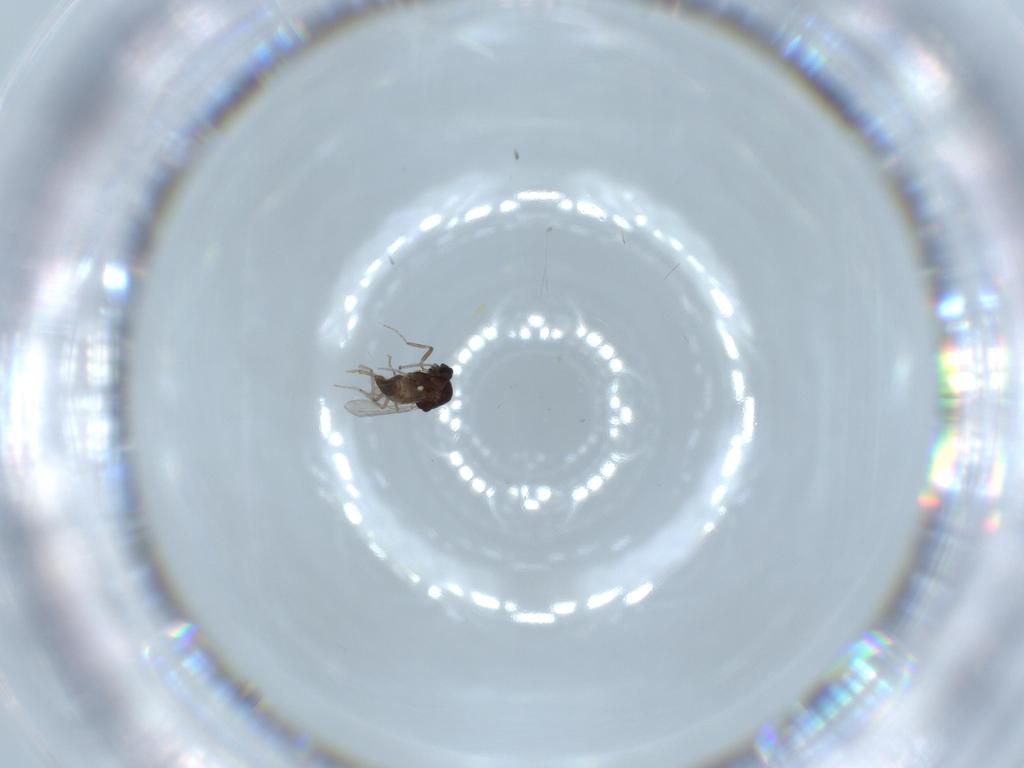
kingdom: Animalia
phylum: Arthropoda
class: Insecta
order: Diptera
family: Ceratopogonidae
